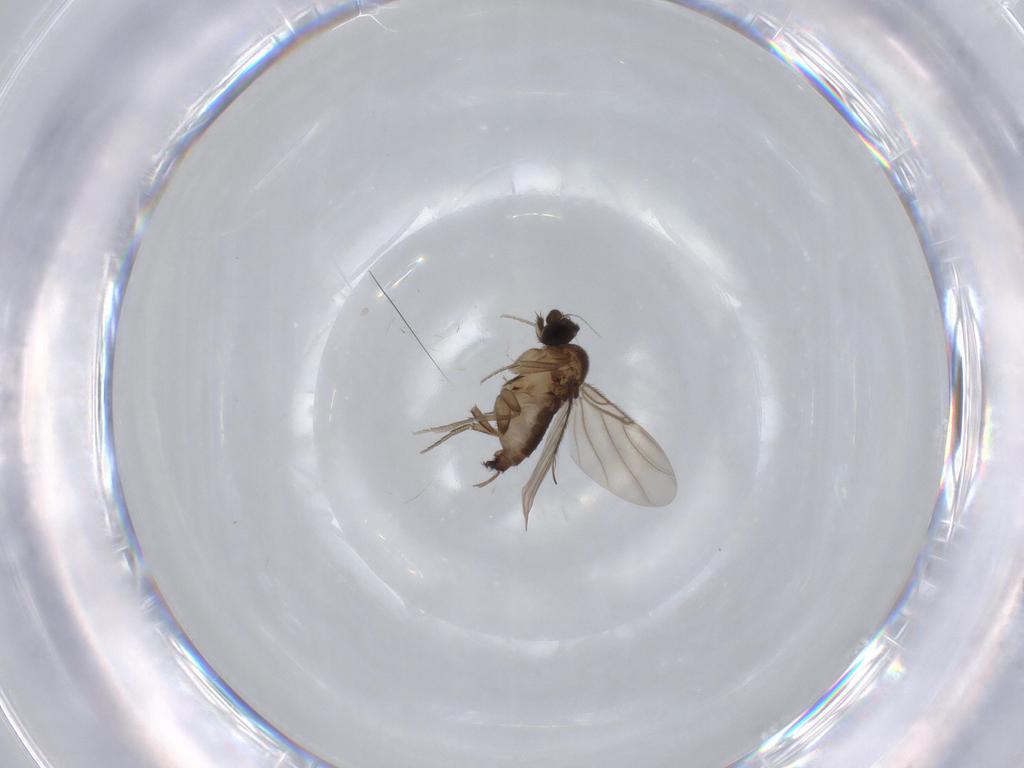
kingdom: Animalia
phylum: Arthropoda
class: Insecta
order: Diptera
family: Phoridae
